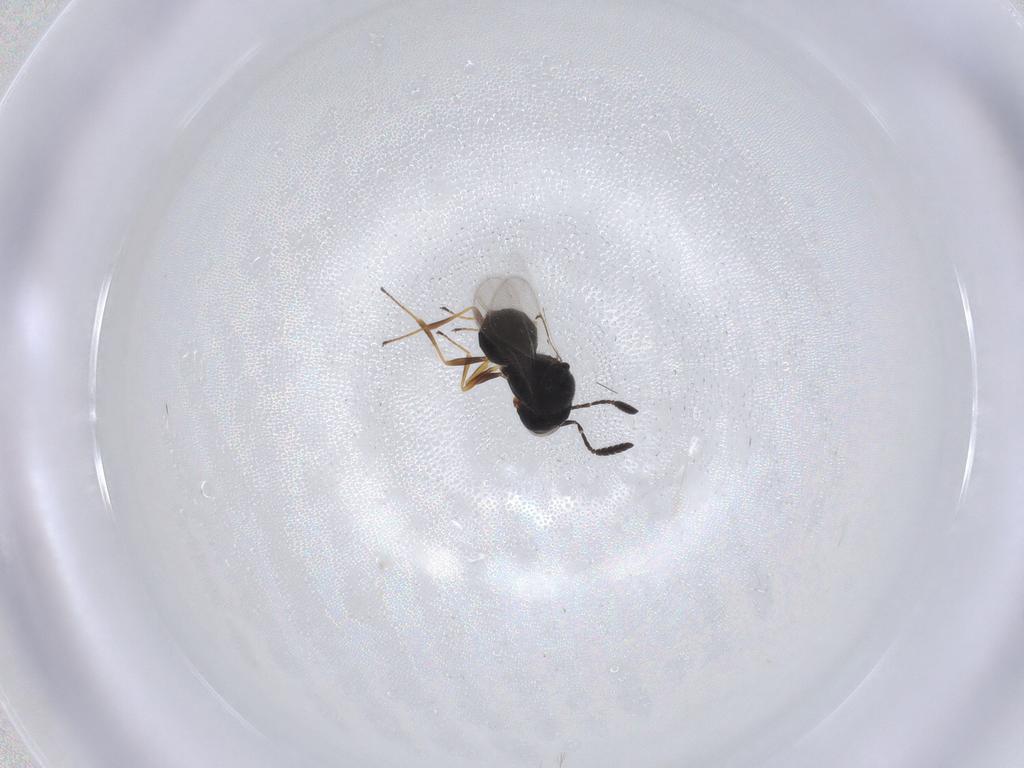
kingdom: Animalia
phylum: Arthropoda
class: Insecta
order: Hymenoptera
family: Scelionidae
